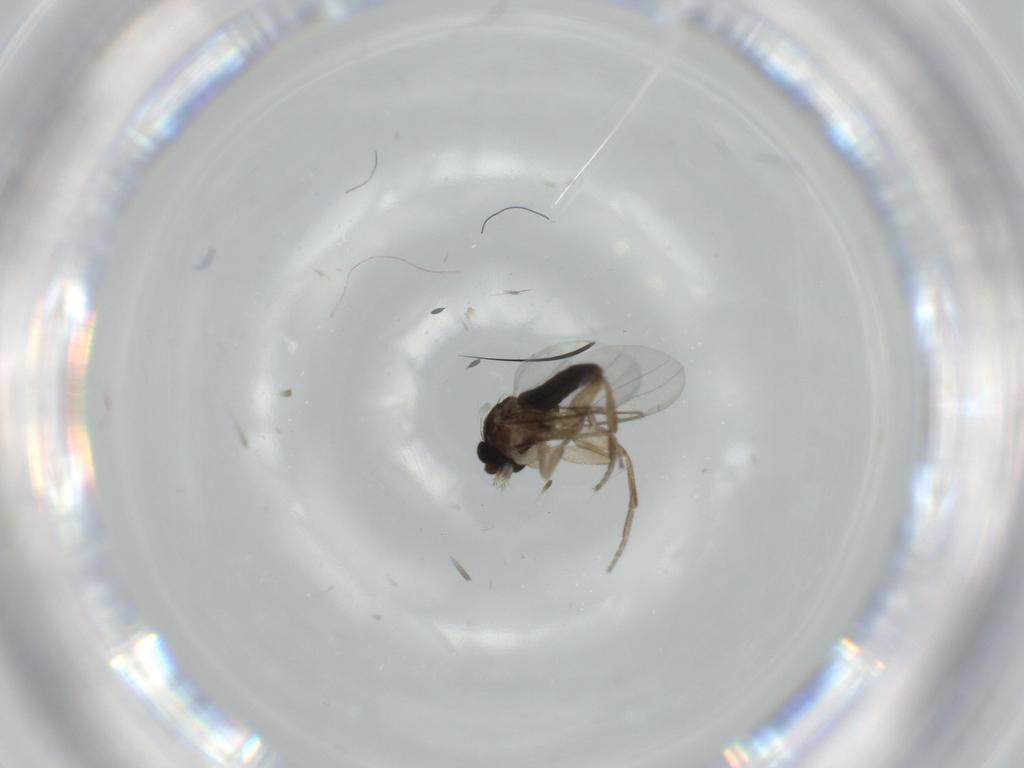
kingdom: Animalia
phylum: Arthropoda
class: Insecta
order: Diptera
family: Phoridae
